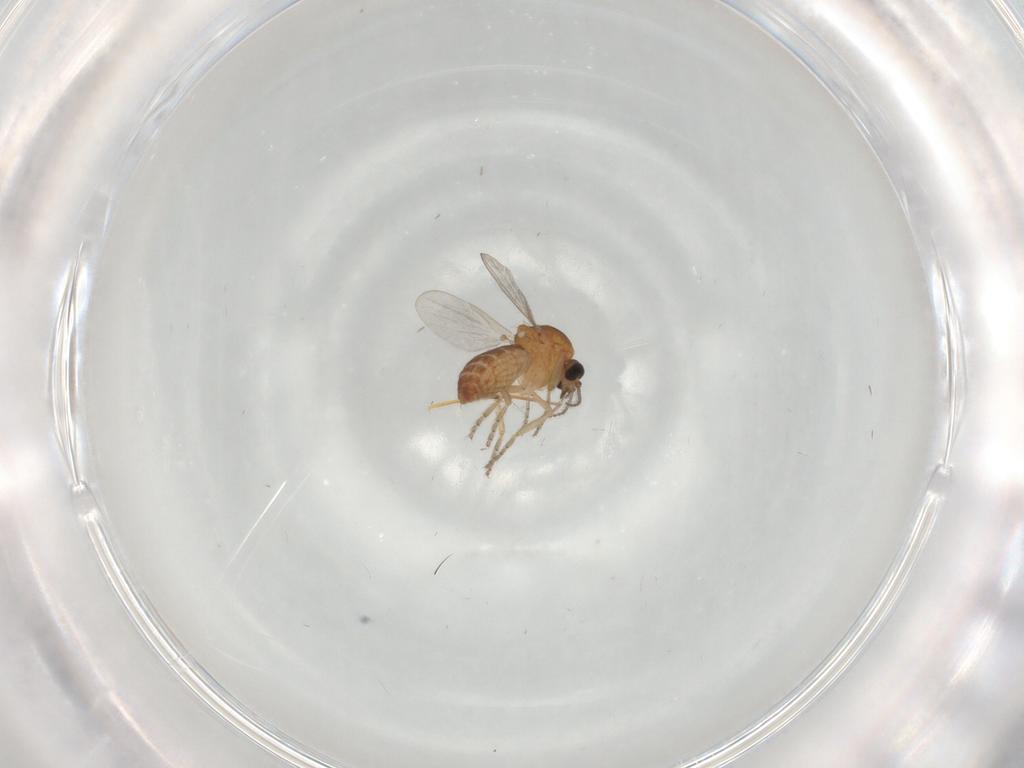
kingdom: Animalia
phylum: Arthropoda
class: Insecta
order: Diptera
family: Ceratopogonidae
